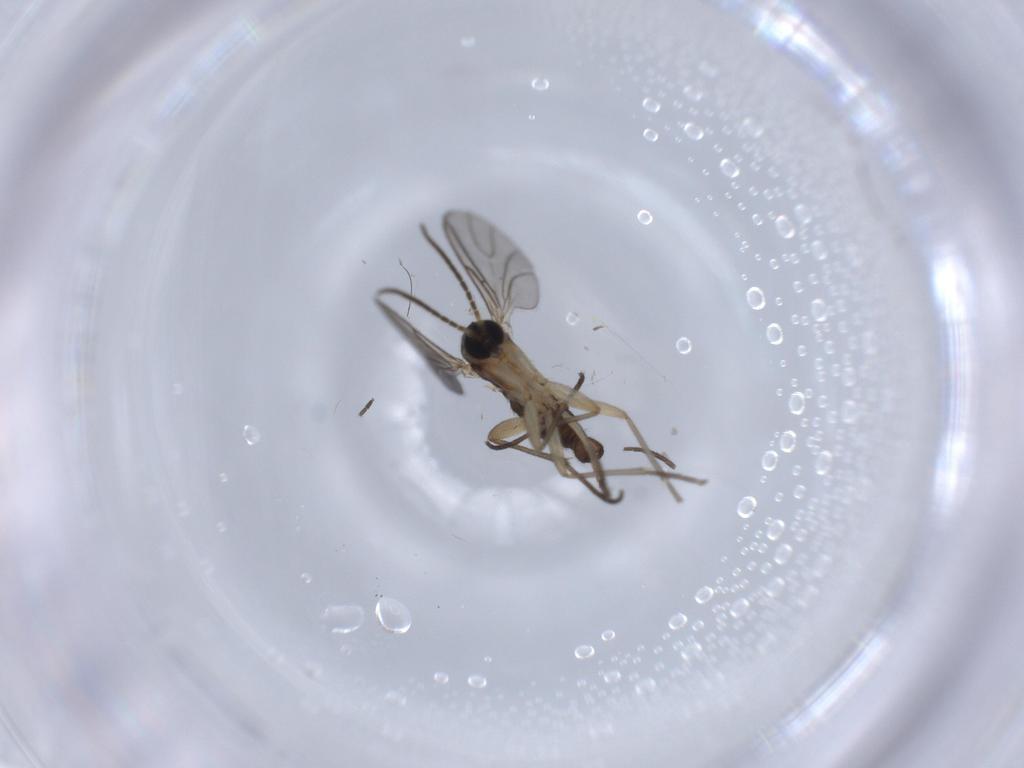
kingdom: Animalia
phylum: Arthropoda
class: Insecta
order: Diptera
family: Sciaridae
